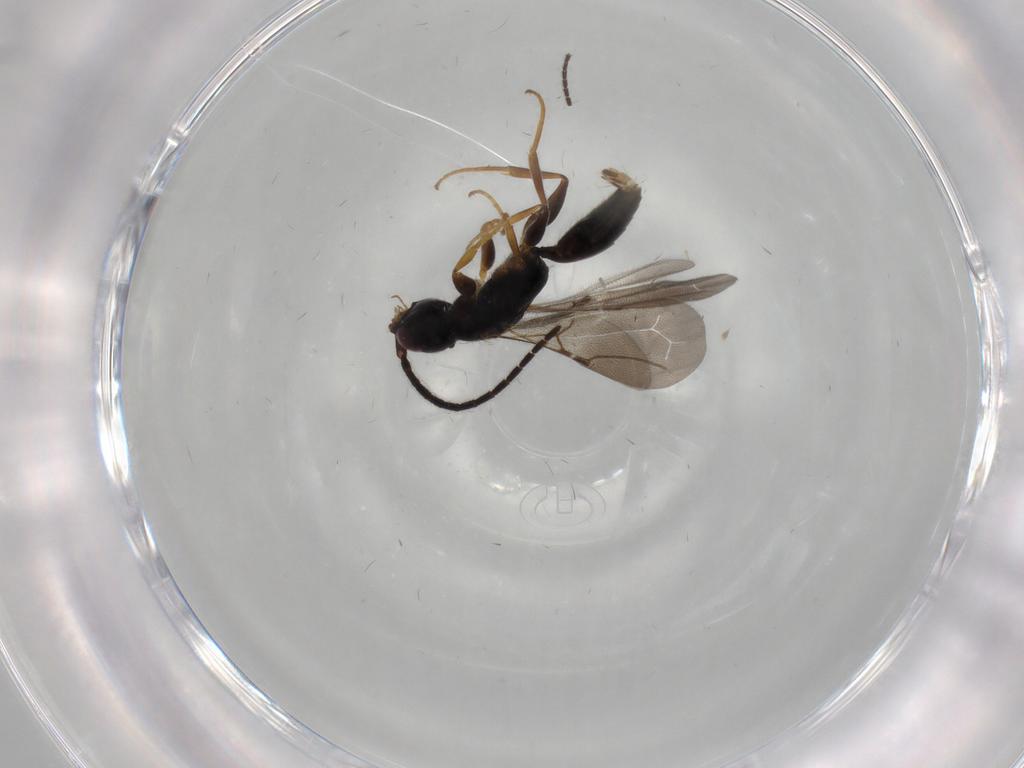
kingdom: Animalia
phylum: Arthropoda
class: Insecta
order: Hymenoptera
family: Bethylidae
